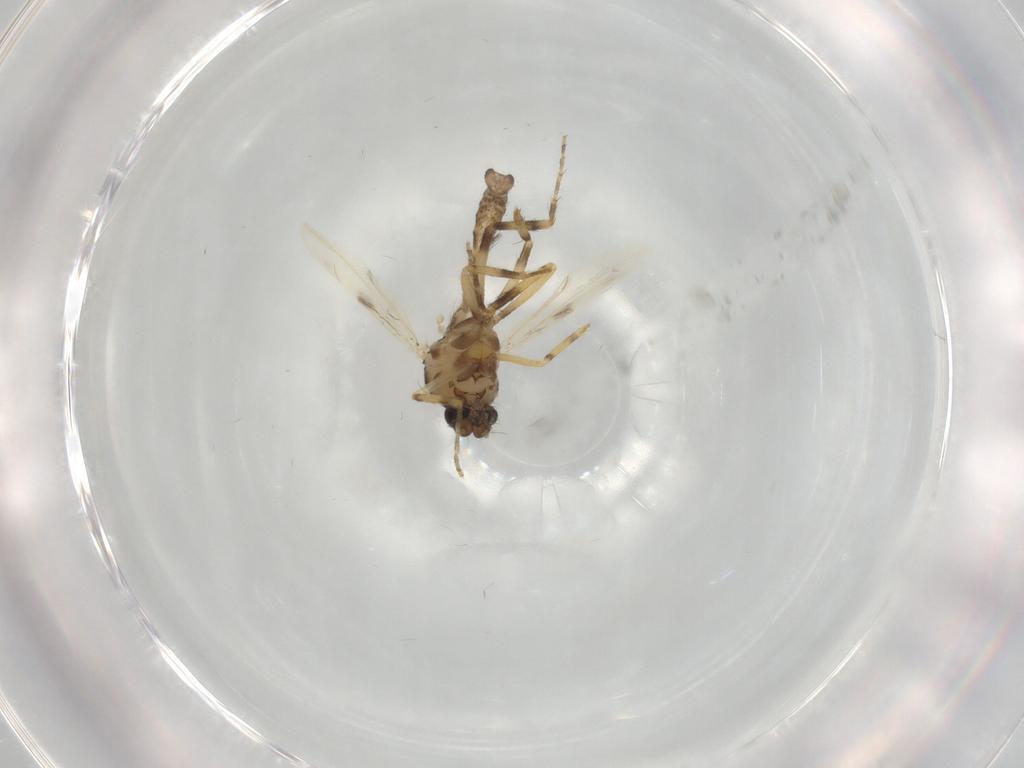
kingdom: Animalia
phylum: Arthropoda
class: Insecta
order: Diptera
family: Ceratopogonidae
